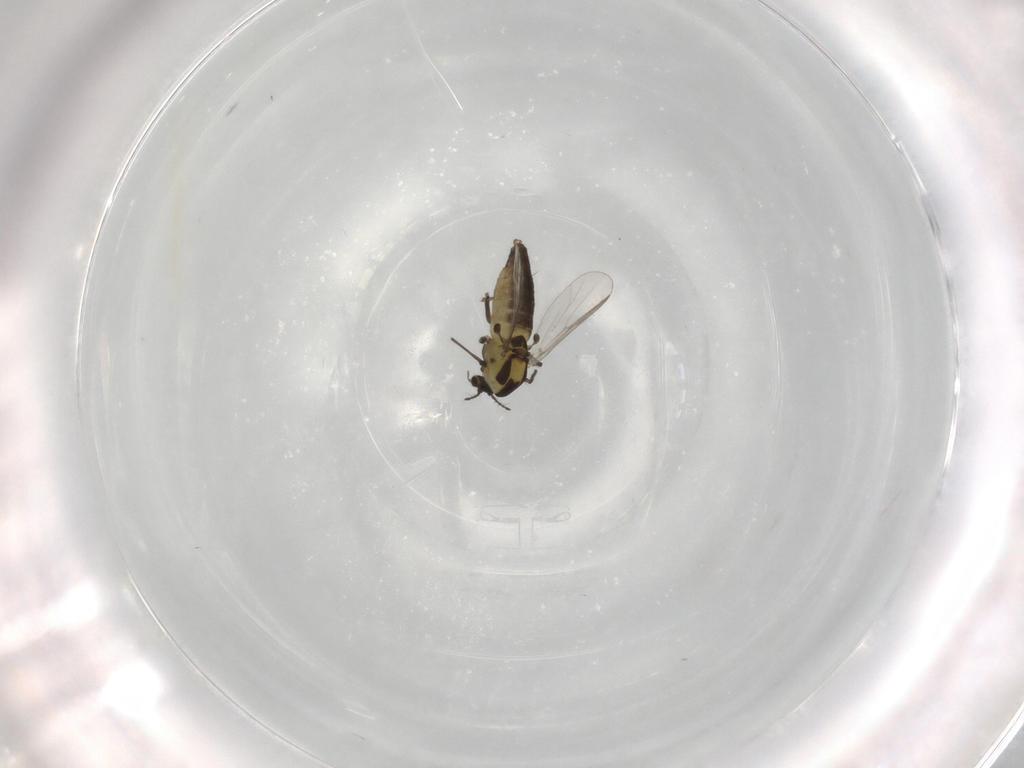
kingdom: Animalia
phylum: Arthropoda
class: Insecta
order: Diptera
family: Chironomidae
